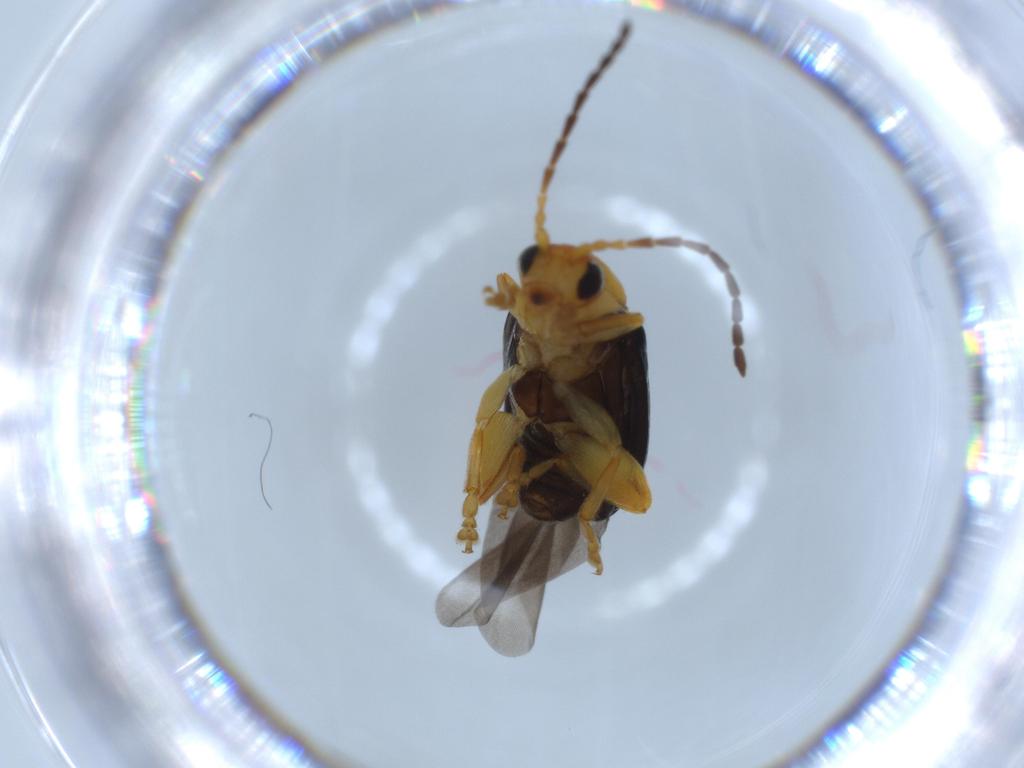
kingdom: Animalia
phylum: Arthropoda
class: Insecta
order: Coleoptera
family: Chrysomelidae
